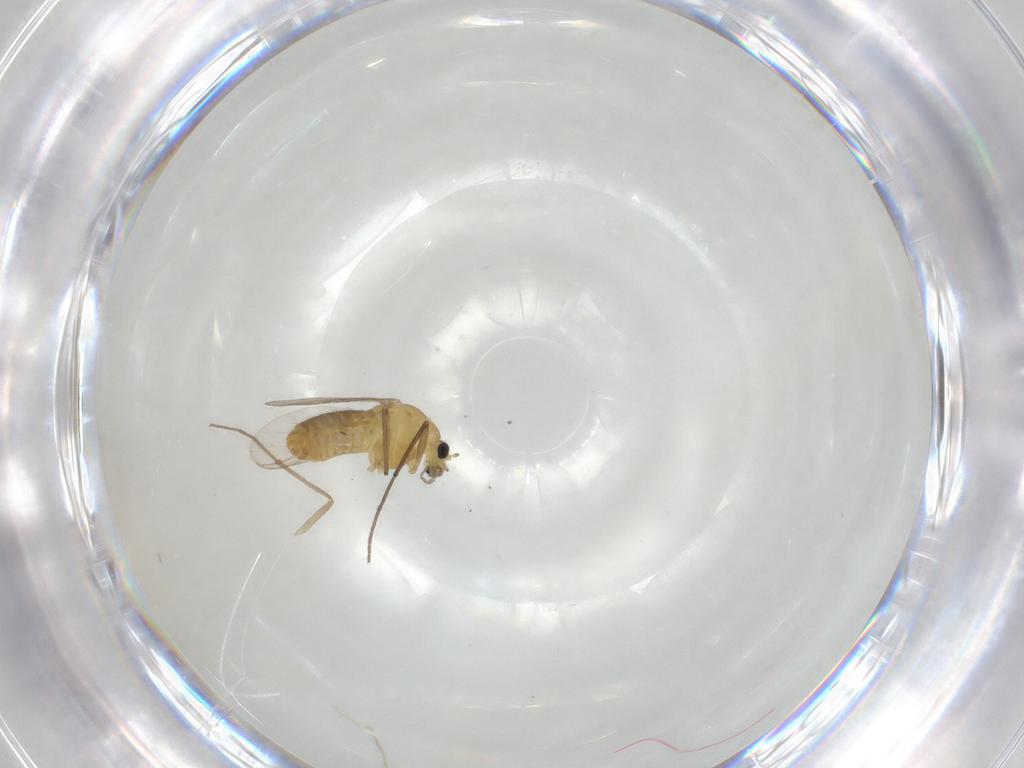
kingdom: Animalia
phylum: Arthropoda
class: Insecta
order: Diptera
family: Chironomidae
